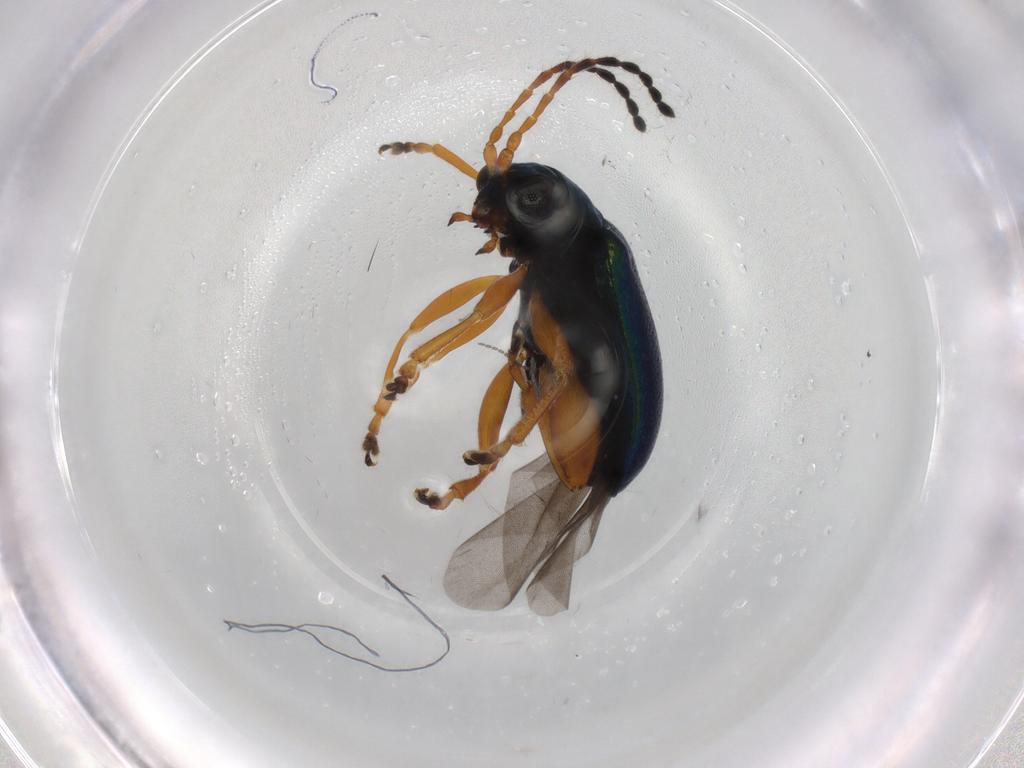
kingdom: Animalia
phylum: Arthropoda
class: Insecta
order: Coleoptera
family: Chrysomelidae
